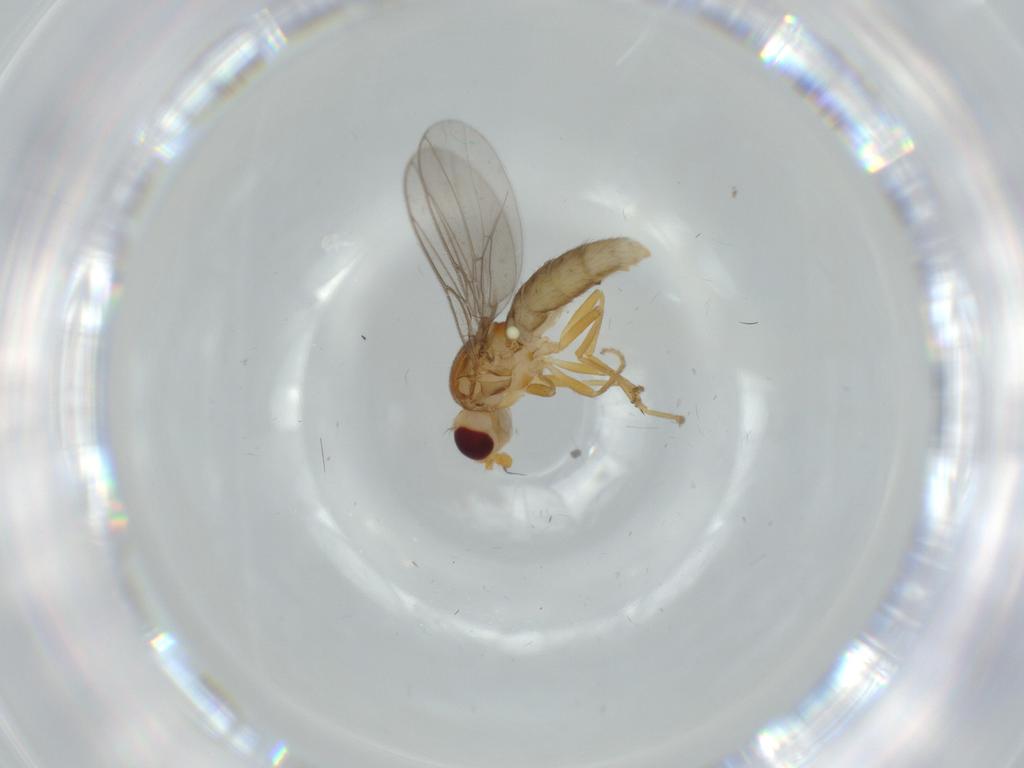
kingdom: Animalia
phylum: Arthropoda
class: Insecta
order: Diptera
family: Chloropidae
